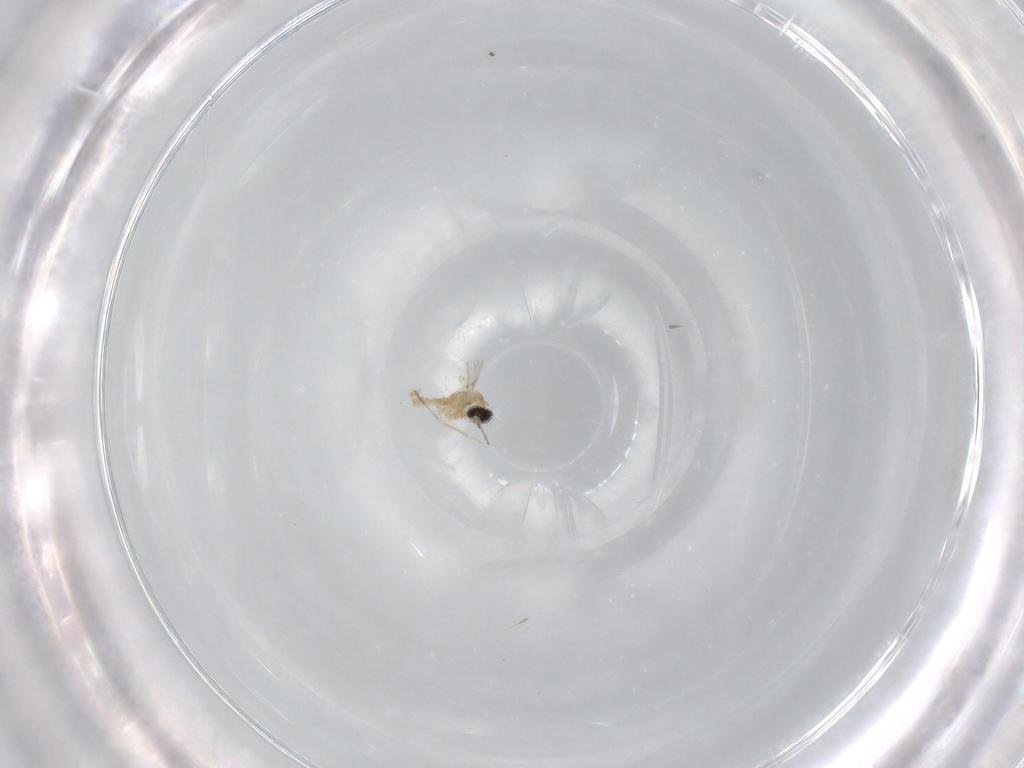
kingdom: Animalia
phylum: Arthropoda
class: Insecta
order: Diptera
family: Cecidomyiidae
